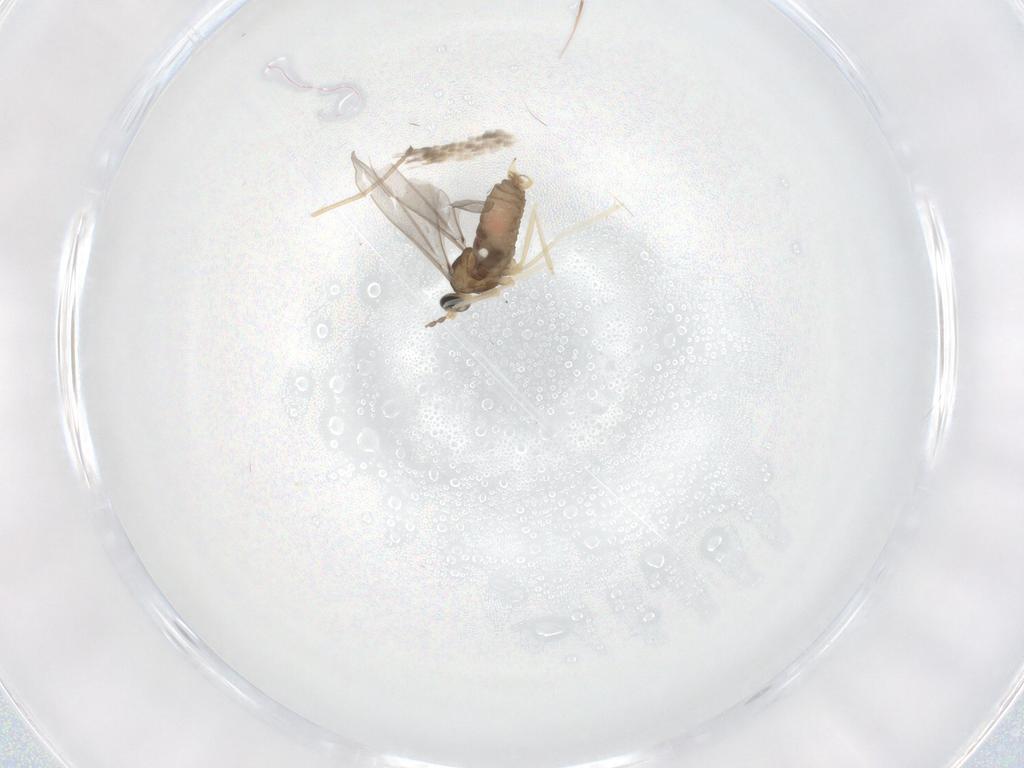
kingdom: Animalia
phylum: Arthropoda
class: Insecta
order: Diptera
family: Cecidomyiidae
